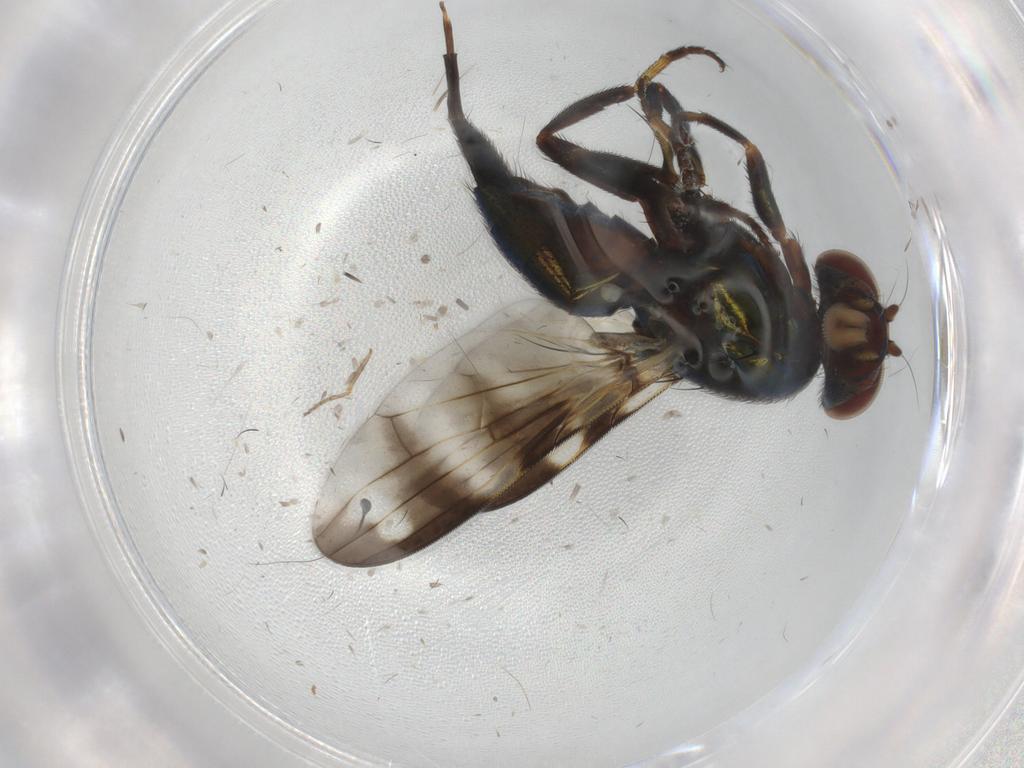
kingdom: Animalia
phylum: Arthropoda
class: Insecta
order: Diptera
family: Ulidiidae
